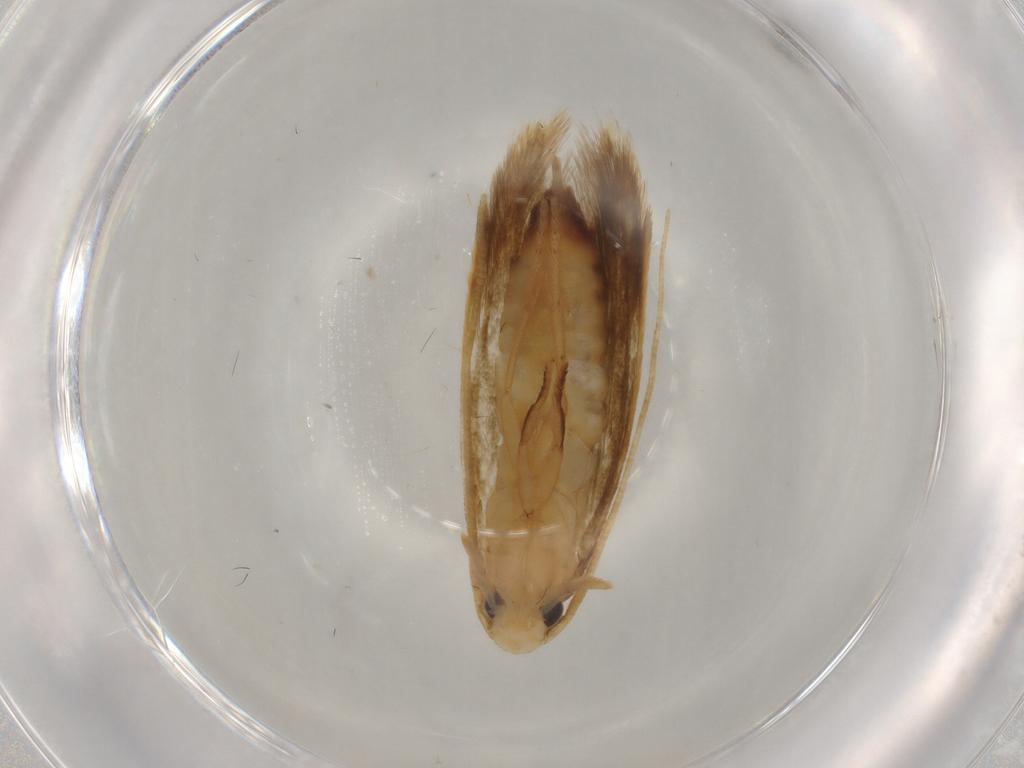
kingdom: Animalia
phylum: Arthropoda
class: Insecta
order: Lepidoptera
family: Tineidae
